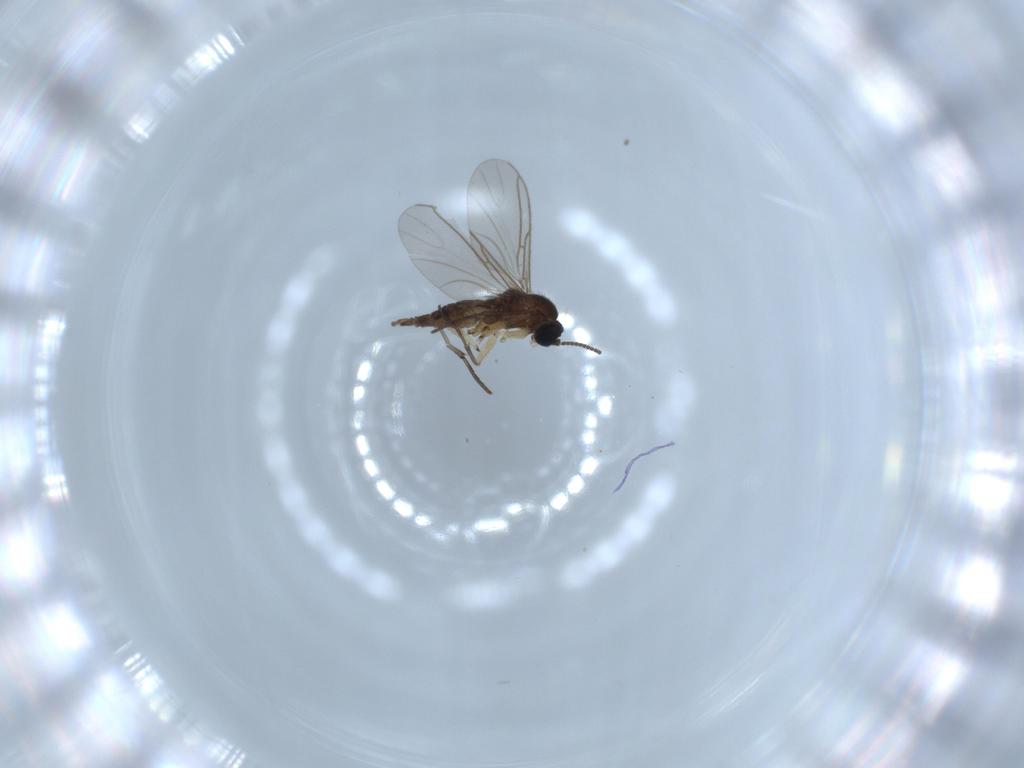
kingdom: Animalia
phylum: Arthropoda
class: Insecta
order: Diptera
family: Sciaridae
